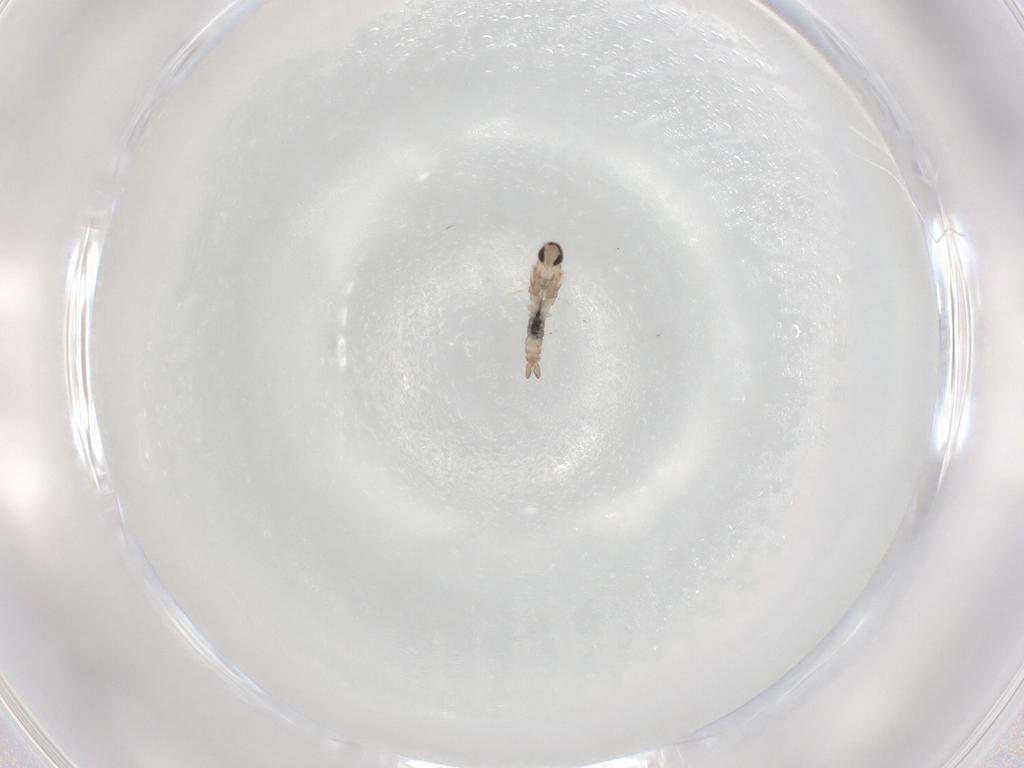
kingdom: Animalia
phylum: Arthropoda
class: Insecta
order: Diptera
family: Cecidomyiidae
